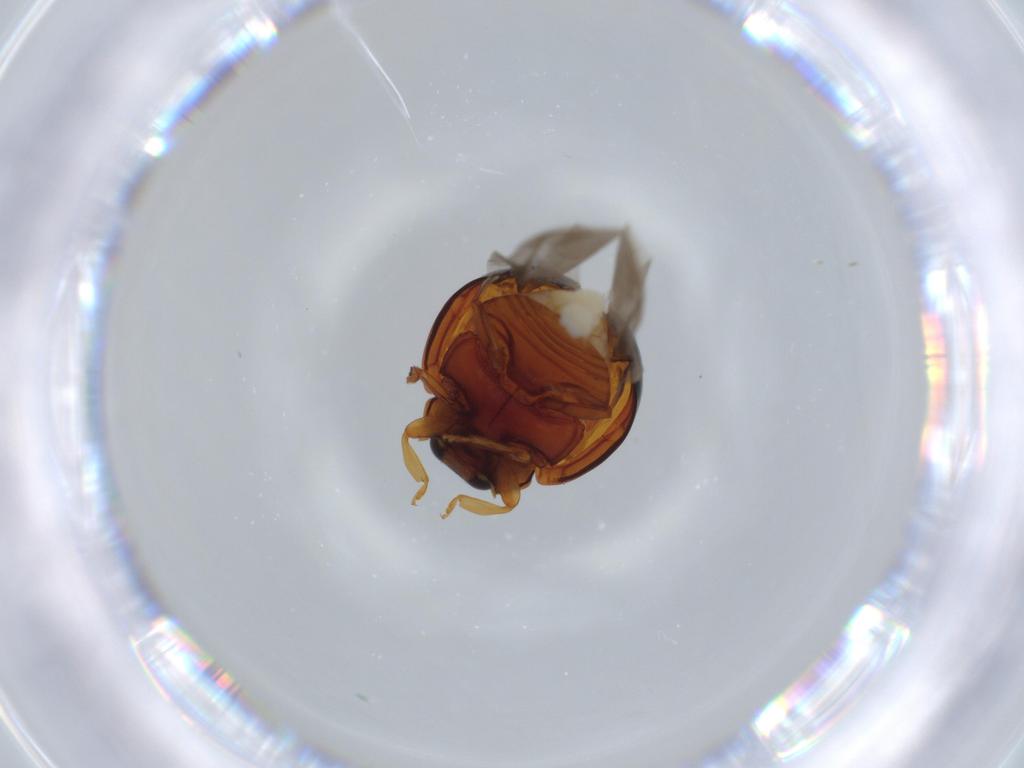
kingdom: Animalia
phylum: Arthropoda
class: Insecta
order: Coleoptera
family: Coccinellidae
